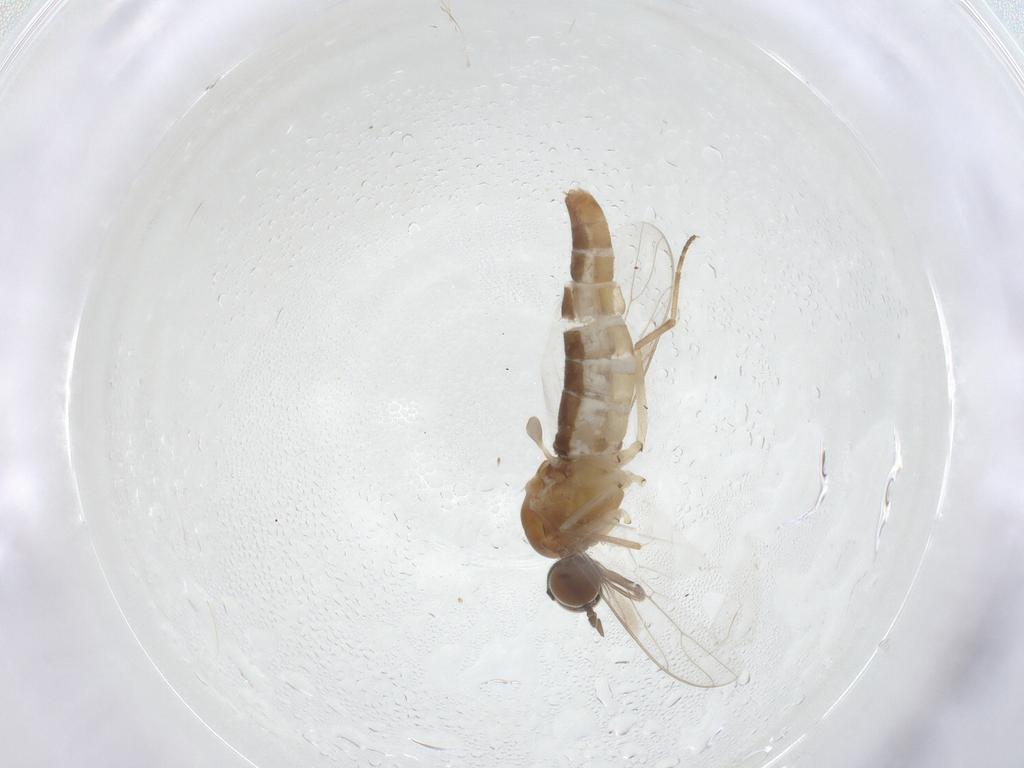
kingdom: Animalia
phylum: Arthropoda
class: Insecta
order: Diptera
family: Scenopinidae
